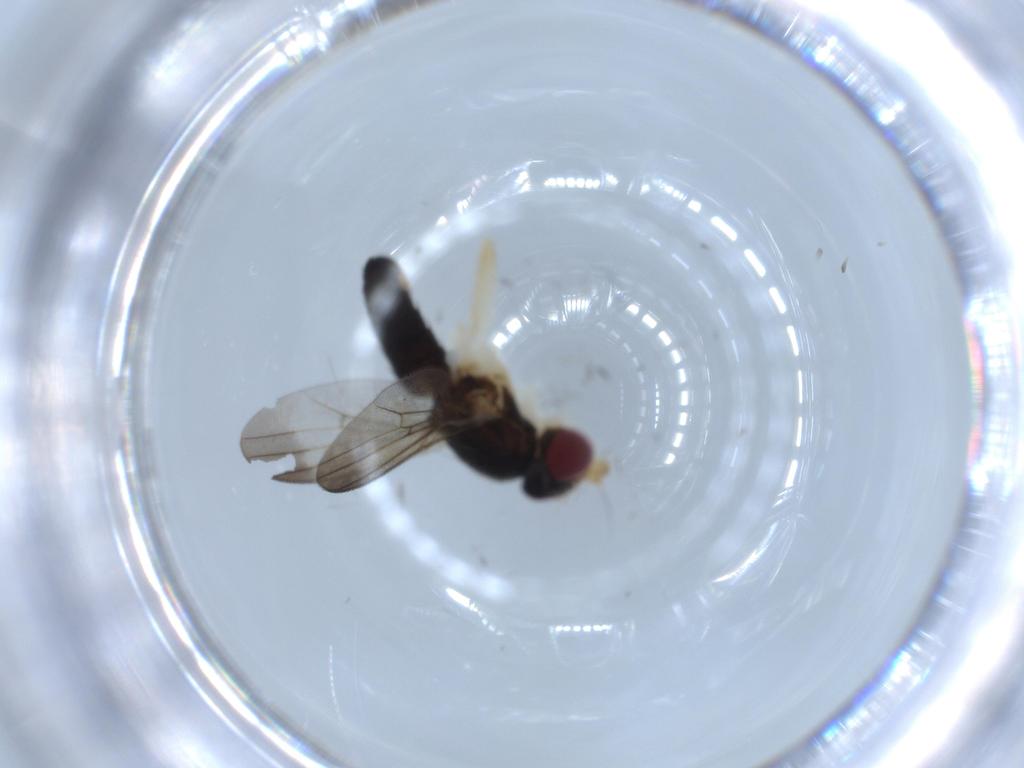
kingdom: Animalia
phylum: Arthropoda
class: Insecta
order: Diptera
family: Clusiidae
